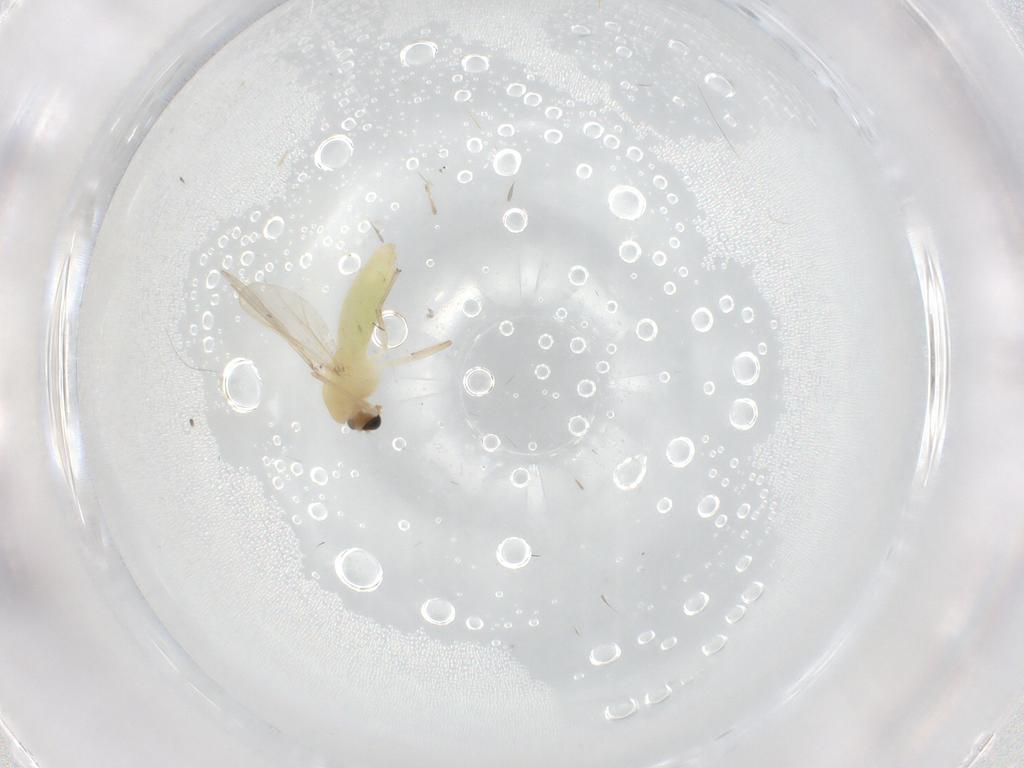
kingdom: Animalia
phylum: Arthropoda
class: Insecta
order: Diptera
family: Chironomidae
